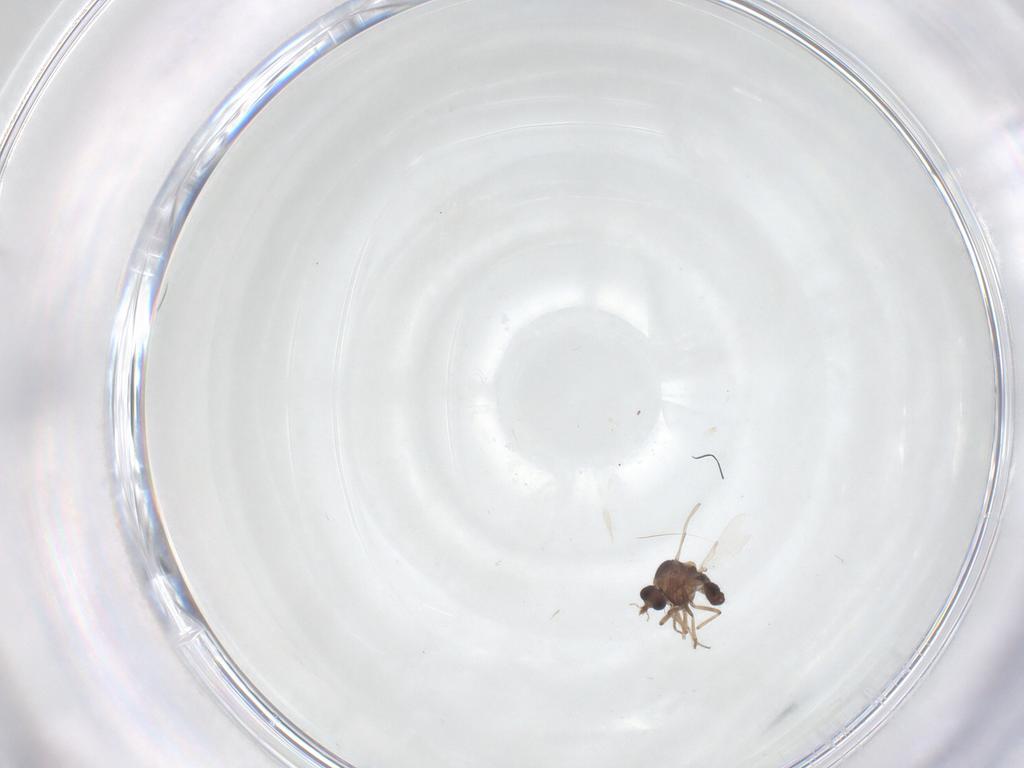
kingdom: Animalia
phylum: Arthropoda
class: Insecta
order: Diptera
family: Ceratopogonidae
